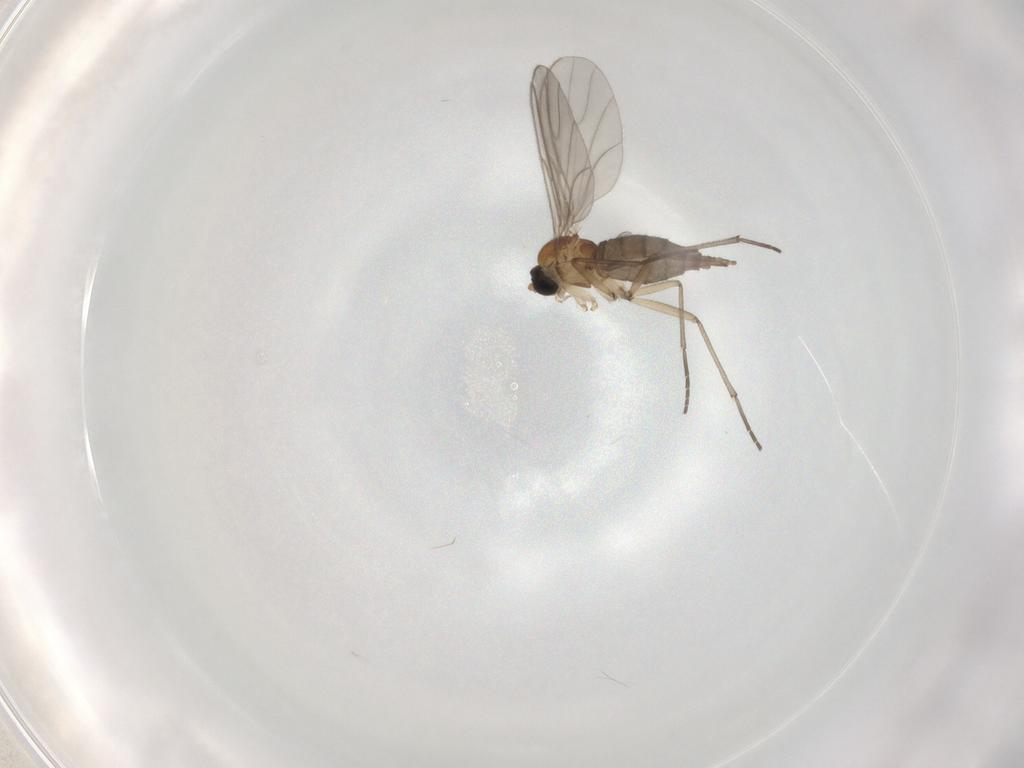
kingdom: Animalia
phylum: Arthropoda
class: Insecta
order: Diptera
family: Sciaridae
